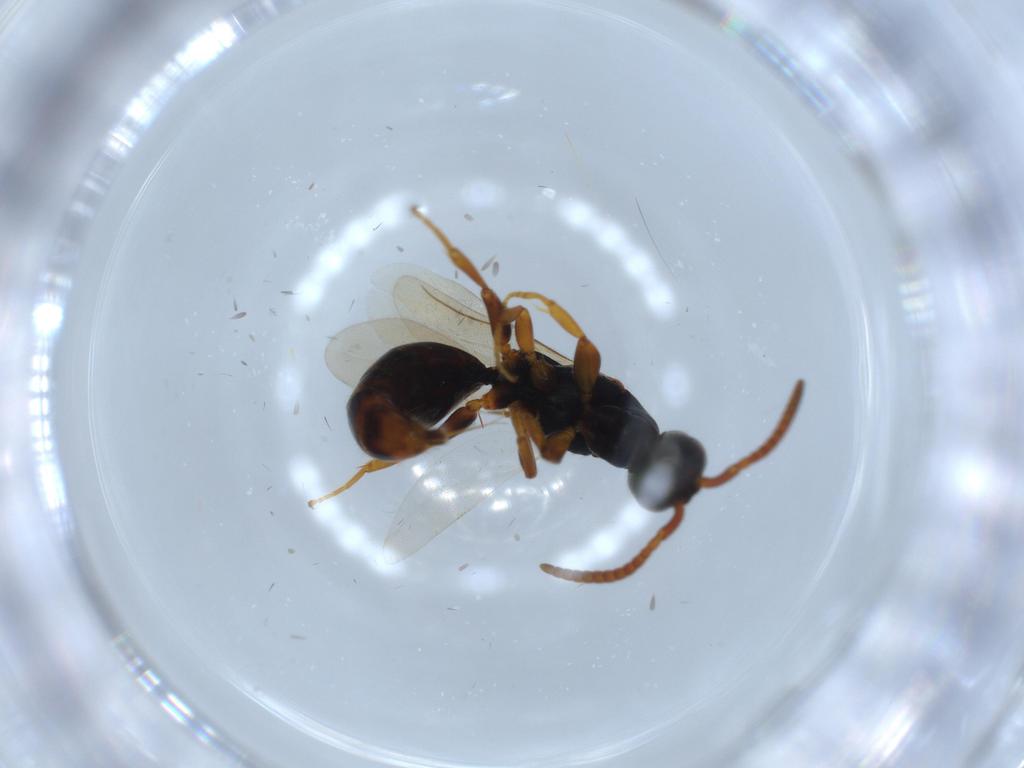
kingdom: Animalia
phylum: Arthropoda
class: Insecta
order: Hymenoptera
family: Bethylidae
